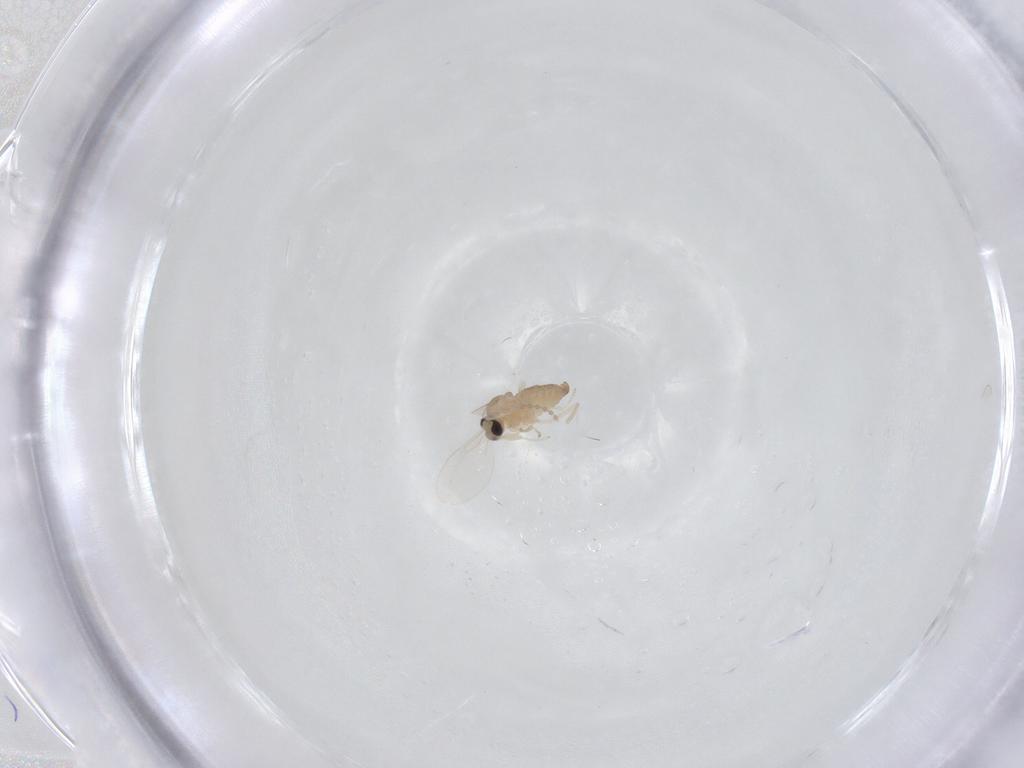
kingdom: Animalia
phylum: Arthropoda
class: Insecta
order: Diptera
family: Cecidomyiidae
